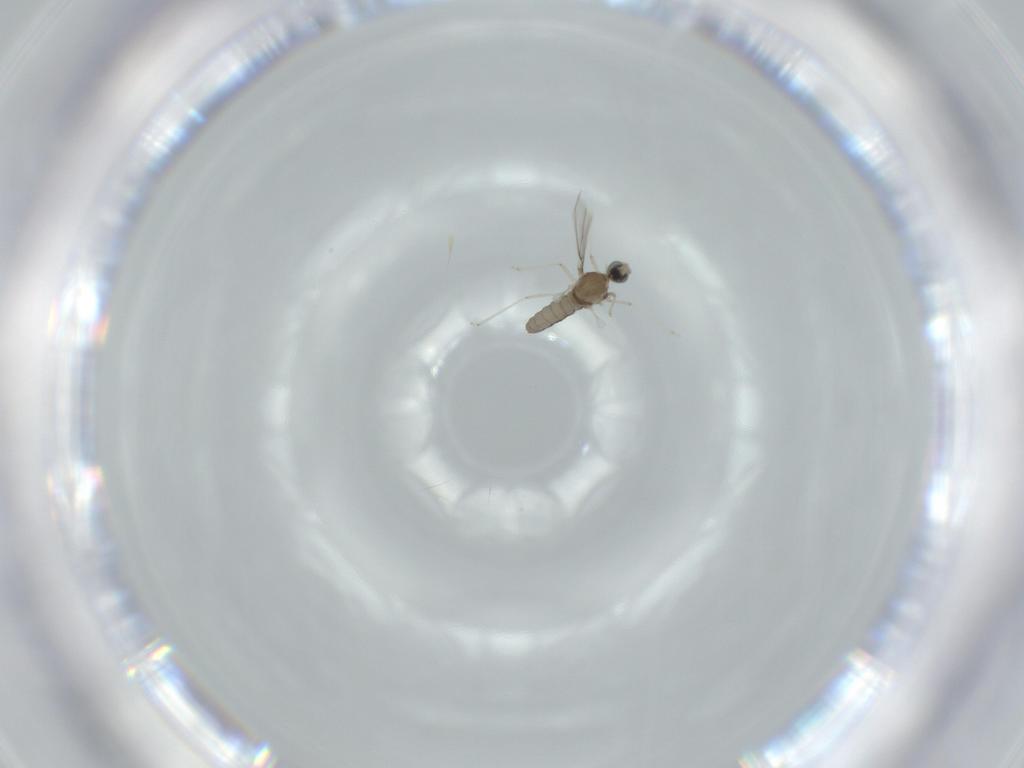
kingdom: Animalia
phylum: Arthropoda
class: Insecta
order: Diptera
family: Cecidomyiidae
